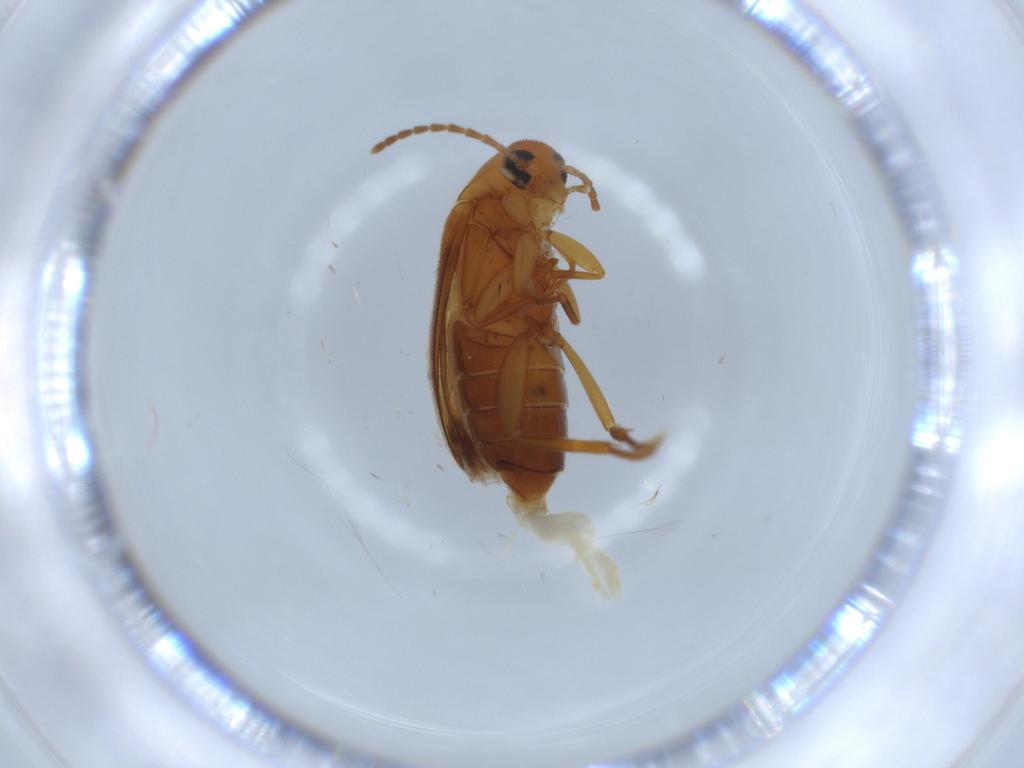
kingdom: Animalia
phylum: Arthropoda
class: Insecta
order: Coleoptera
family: Scraptiidae
